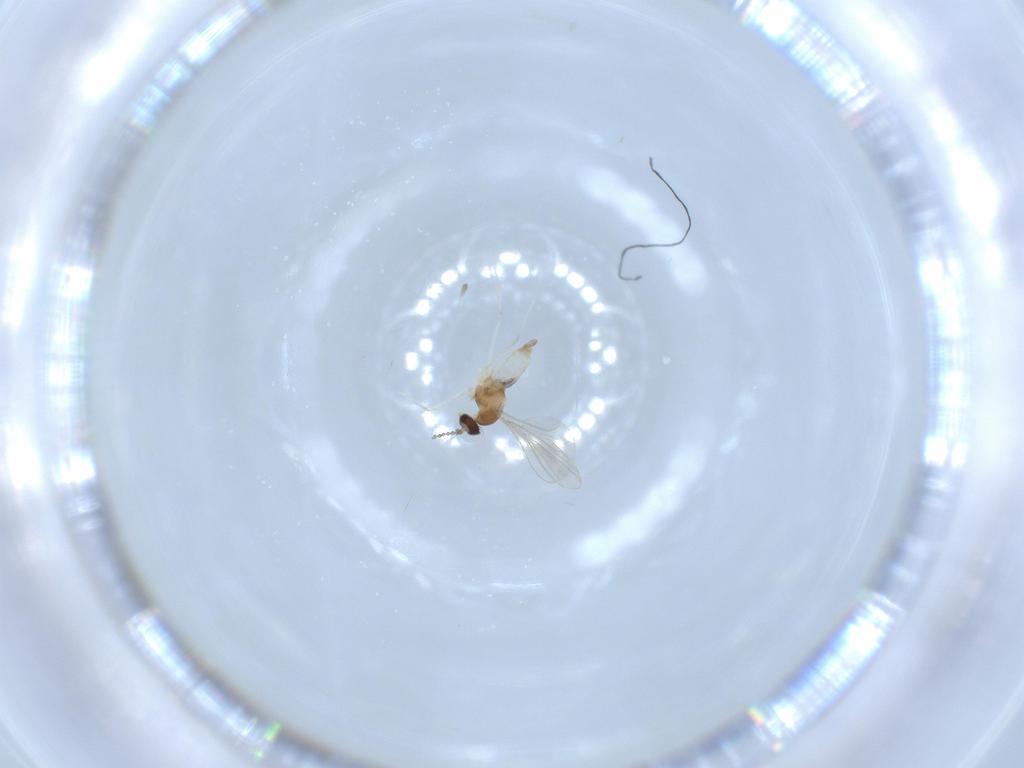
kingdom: Animalia
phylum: Arthropoda
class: Insecta
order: Diptera
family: Cecidomyiidae
